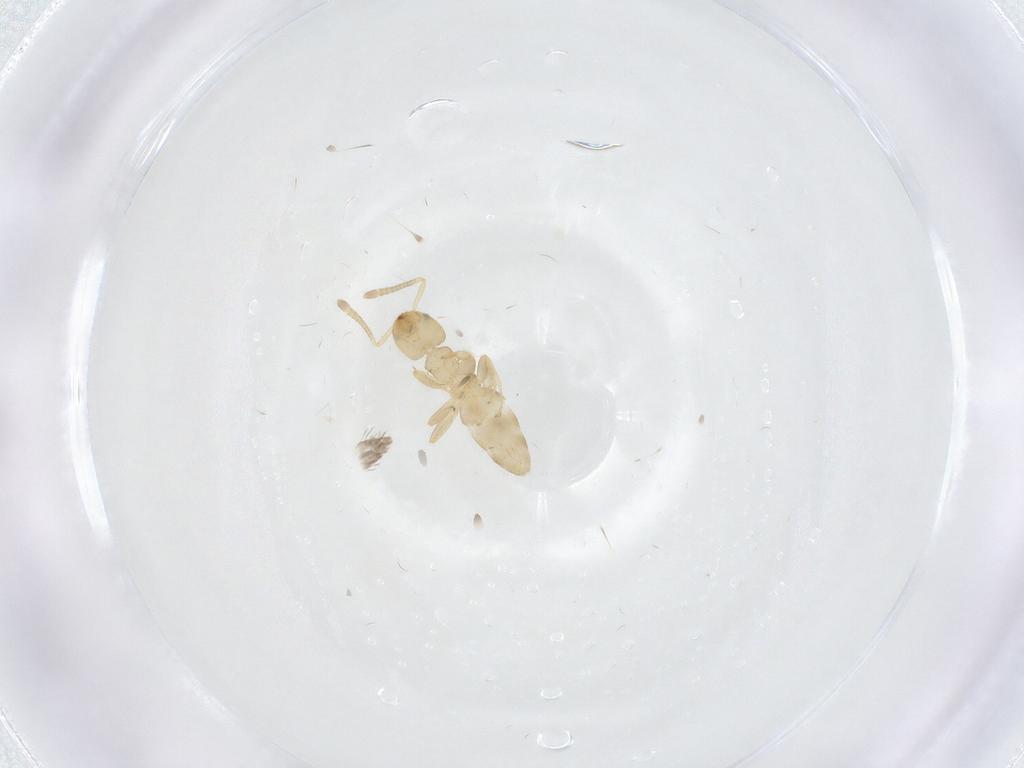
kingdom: Animalia
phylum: Arthropoda
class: Insecta
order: Hymenoptera
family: Formicidae
